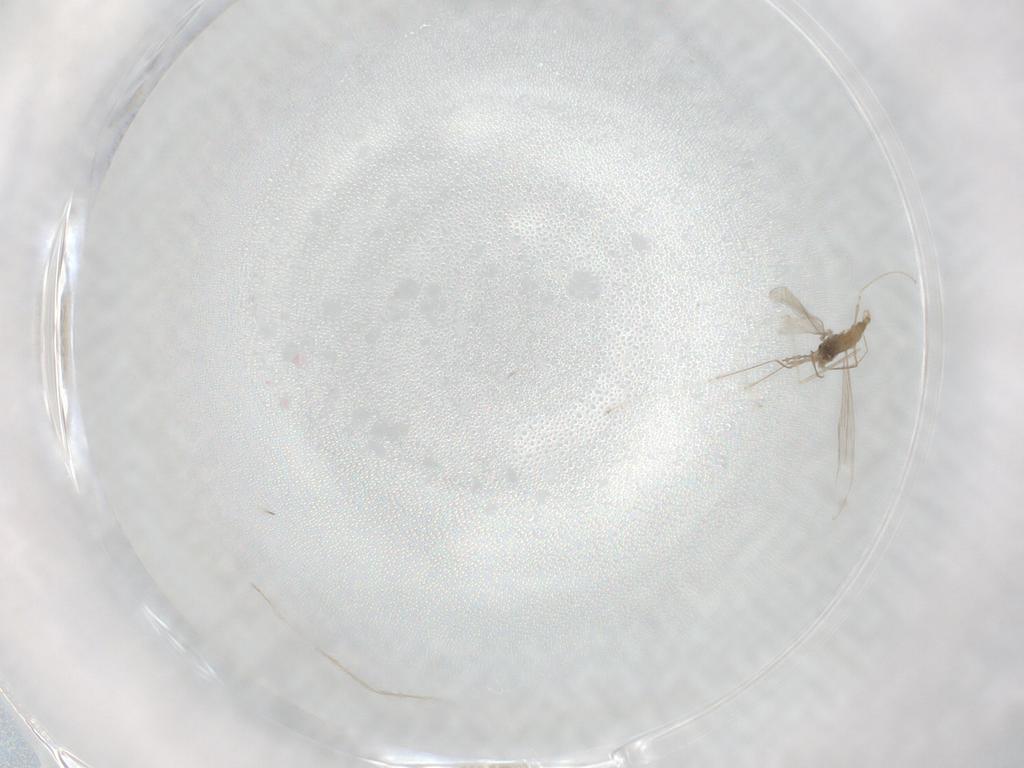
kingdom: Animalia
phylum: Arthropoda
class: Insecta
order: Diptera
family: Cecidomyiidae
